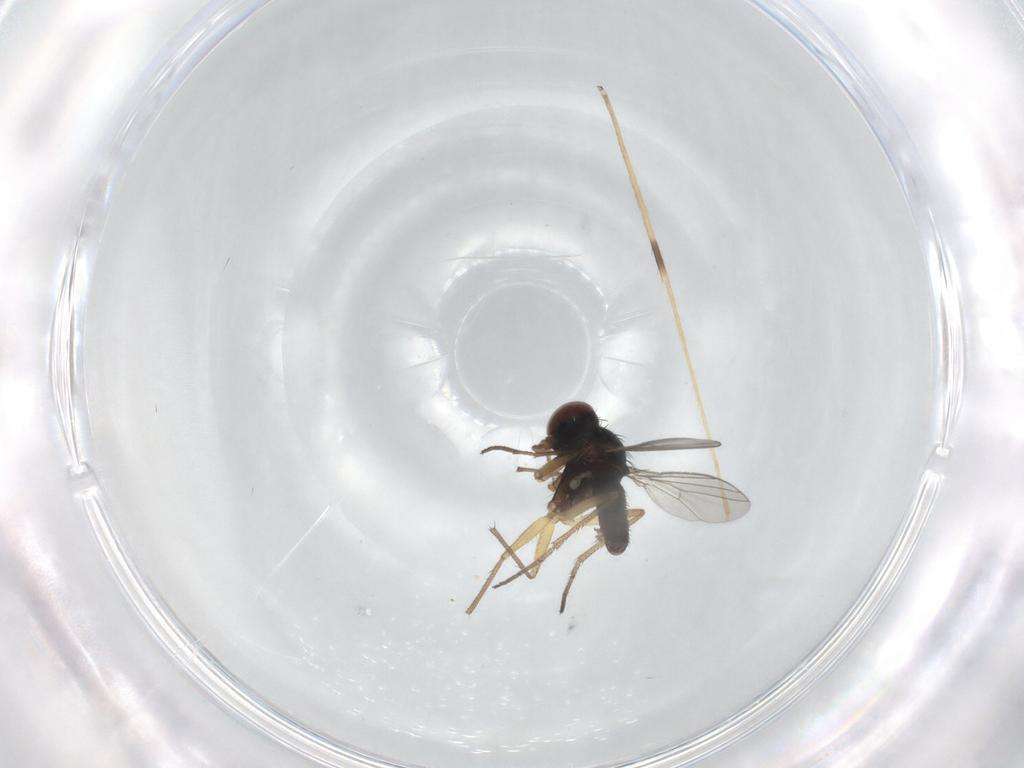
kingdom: Animalia
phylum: Arthropoda
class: Insecta
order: Diptera
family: Dolichopodidae
